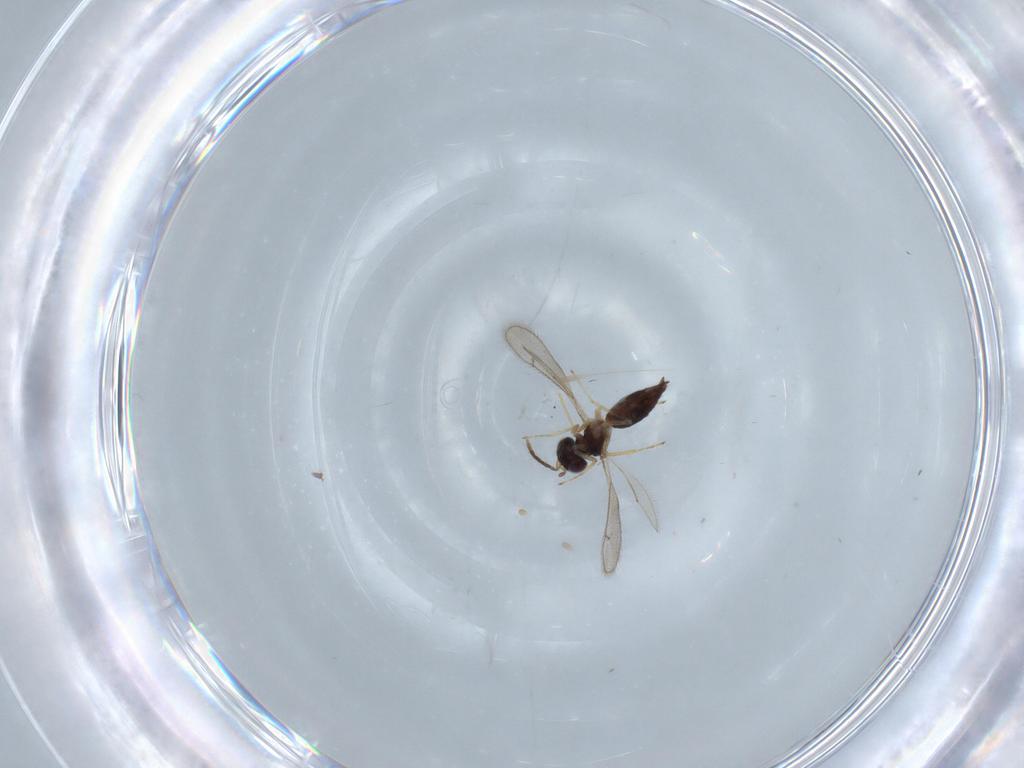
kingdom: Animalia
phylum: Arthropoda
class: Insecta
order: Hymenoptera
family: Eulophidae
